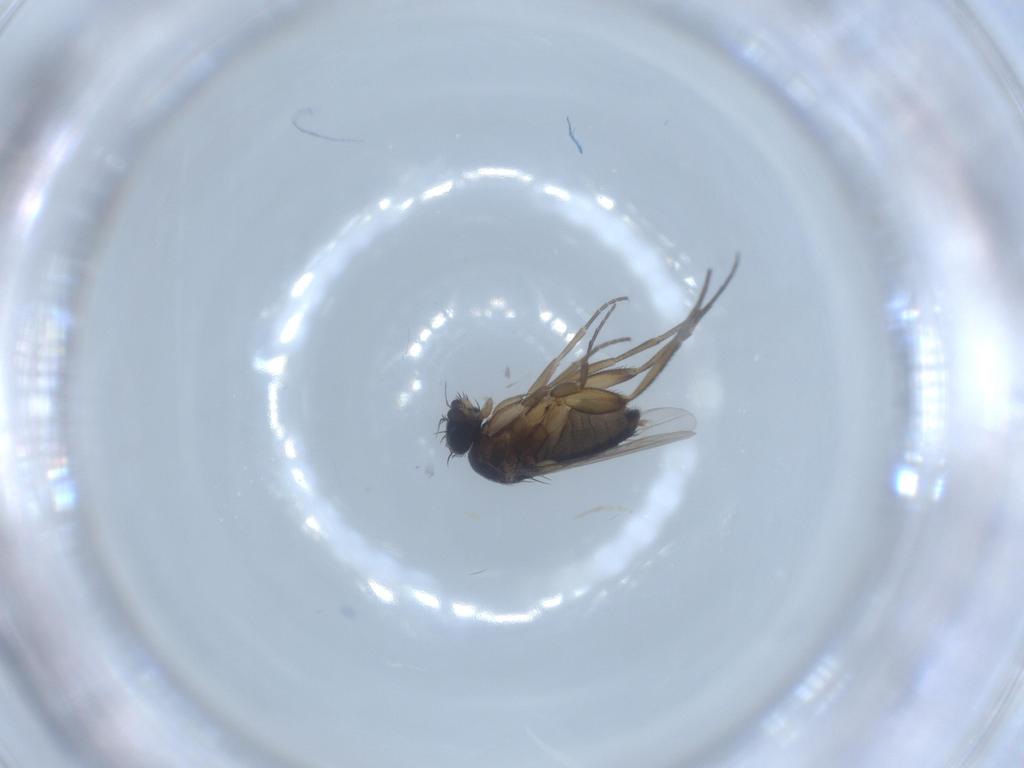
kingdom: Animalia
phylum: Arthropoda
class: Insecta
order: Diptera
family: Phoridae
